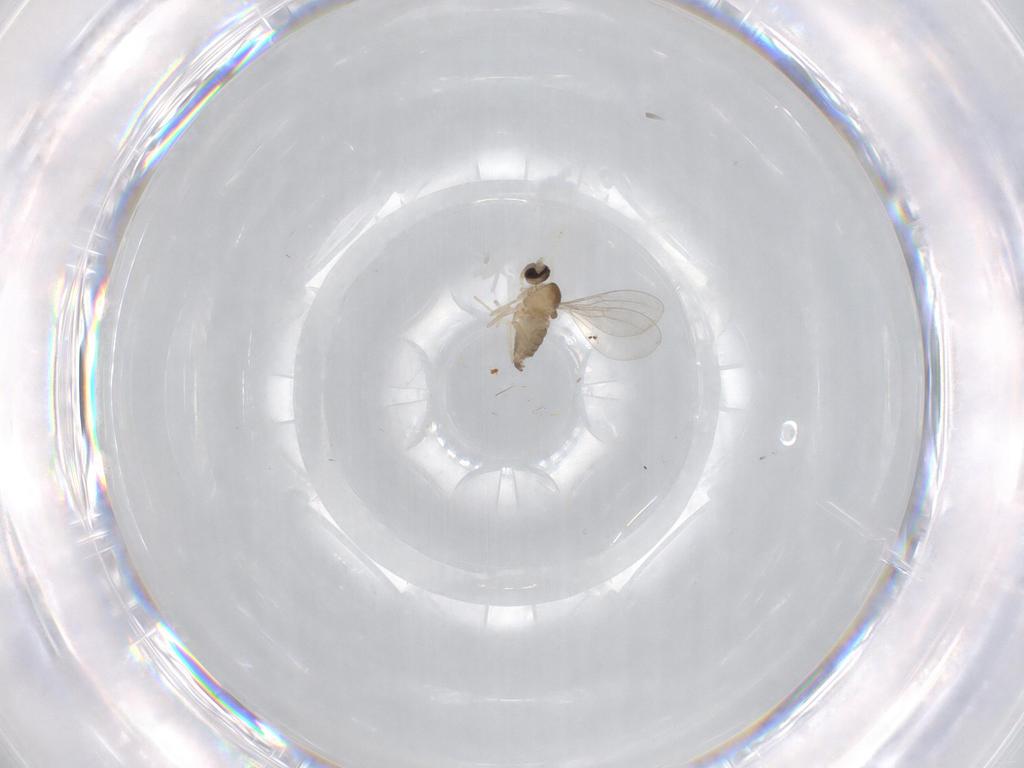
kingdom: Animalia
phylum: Arthropoda
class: Insecta
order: Diptera
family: Cecidomyiidae
